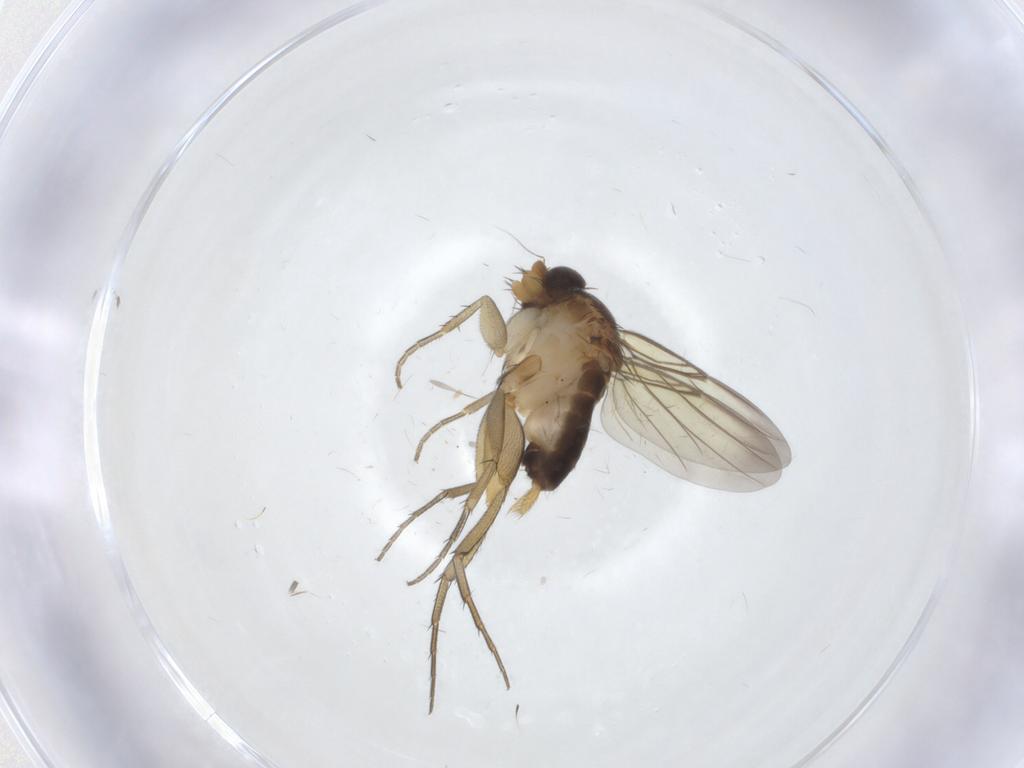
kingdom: Animalia
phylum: Arthropoda
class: Insecta
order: Diptera
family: Phoridae
